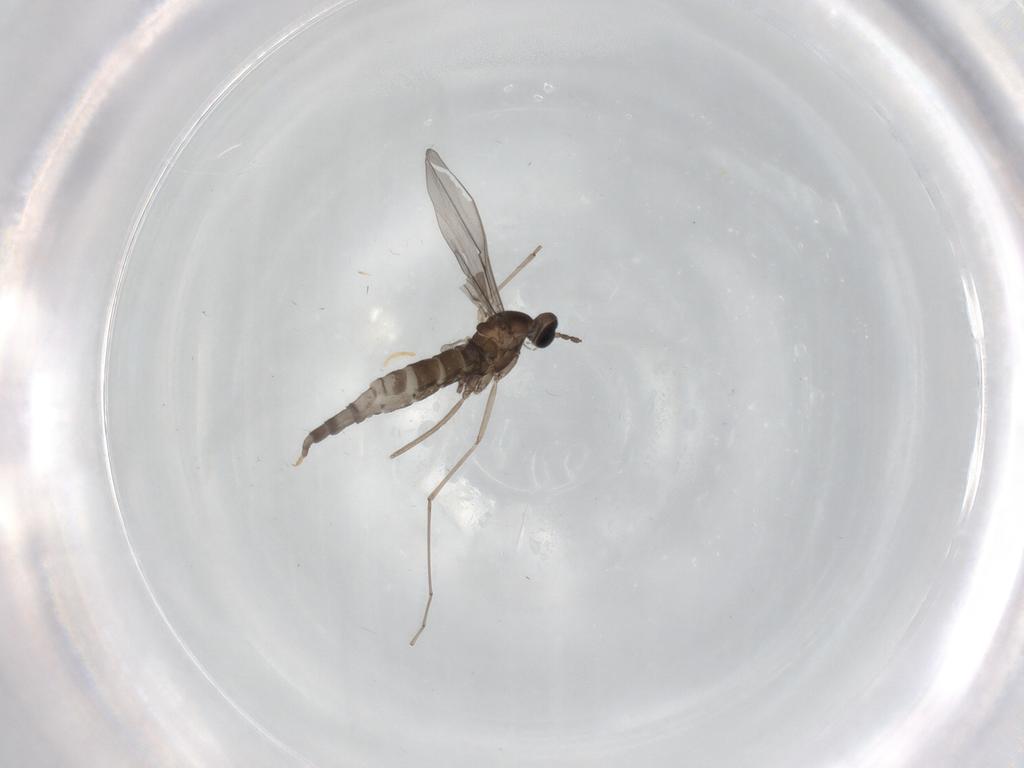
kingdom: Animalia
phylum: Arthropoda
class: Insecta
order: Diptera
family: Cecidomyiidae
